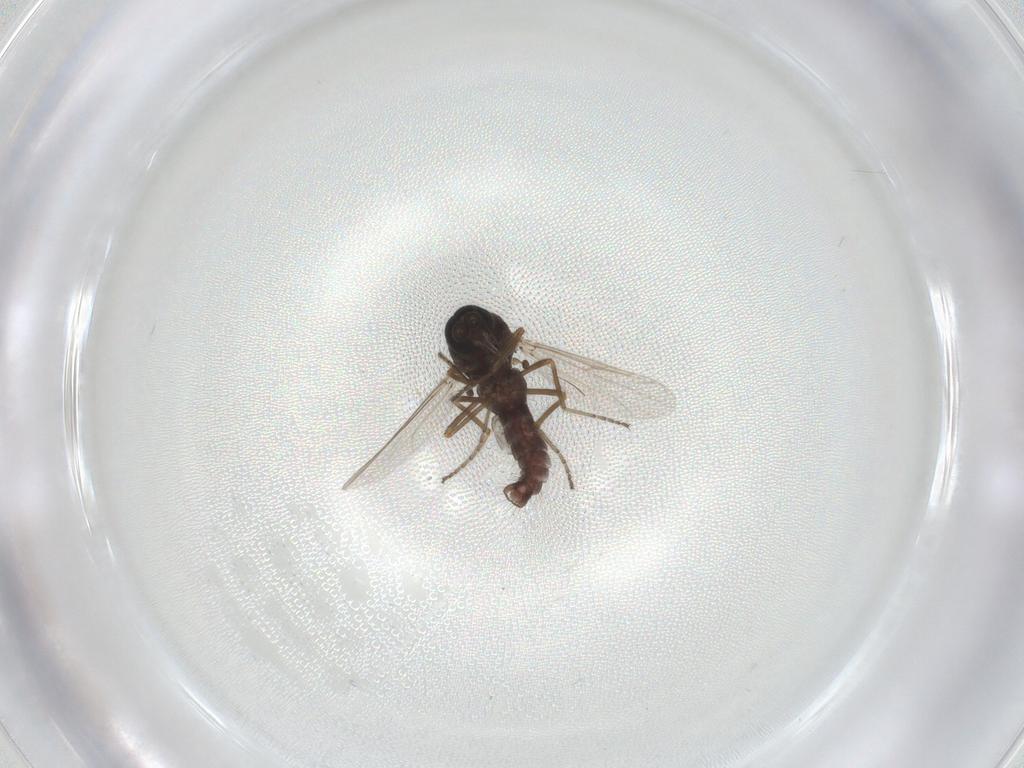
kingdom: Animalia
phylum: Arthropoda
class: Insecta
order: Diptera
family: Ceratopogonidae
